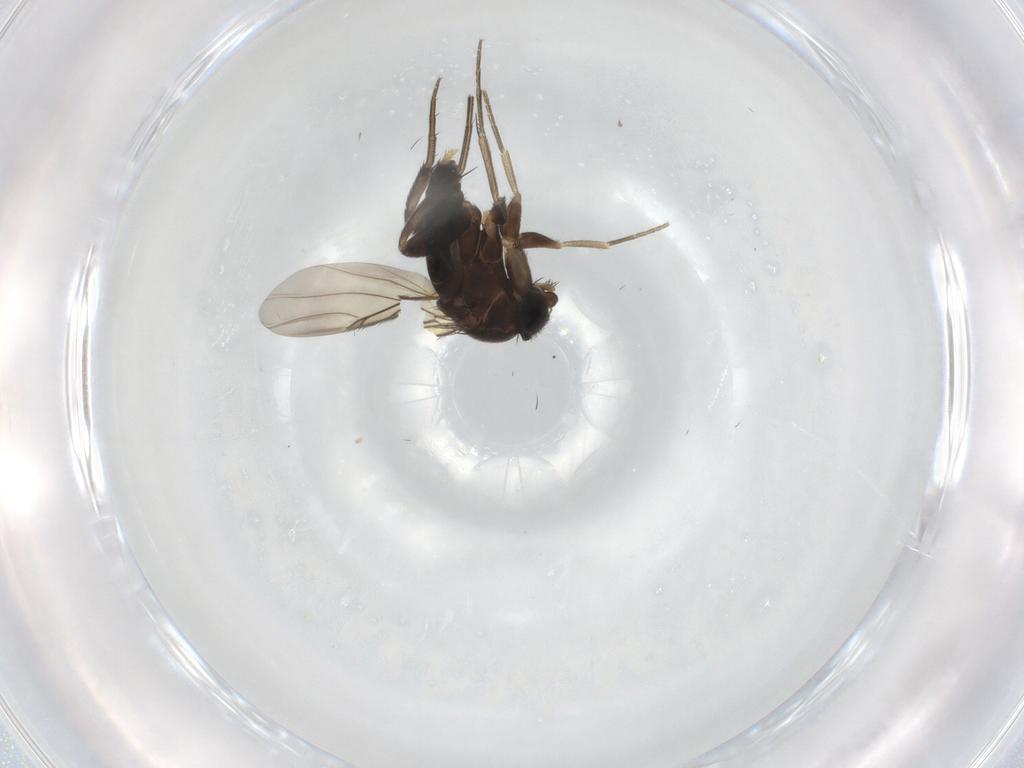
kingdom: Animalia
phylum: Arthropoda
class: Insecta
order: Diptera
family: Phoridae
